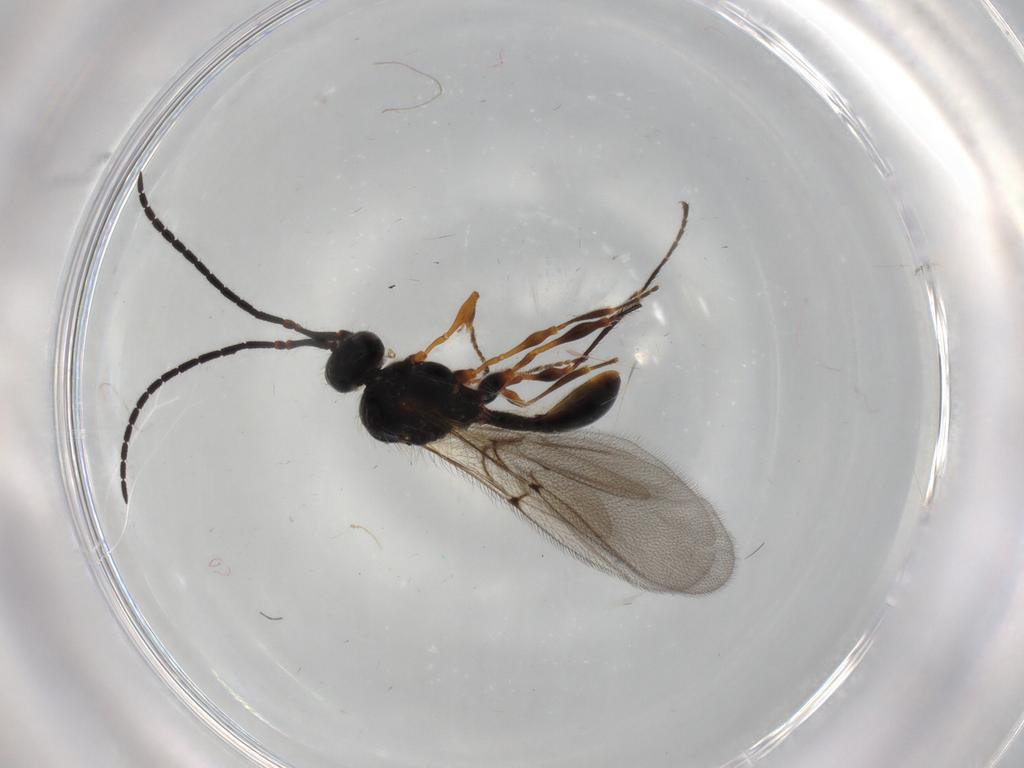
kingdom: Animalia
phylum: Arthropoda
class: Insecta
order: Hymenoptera
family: Diapriidae
